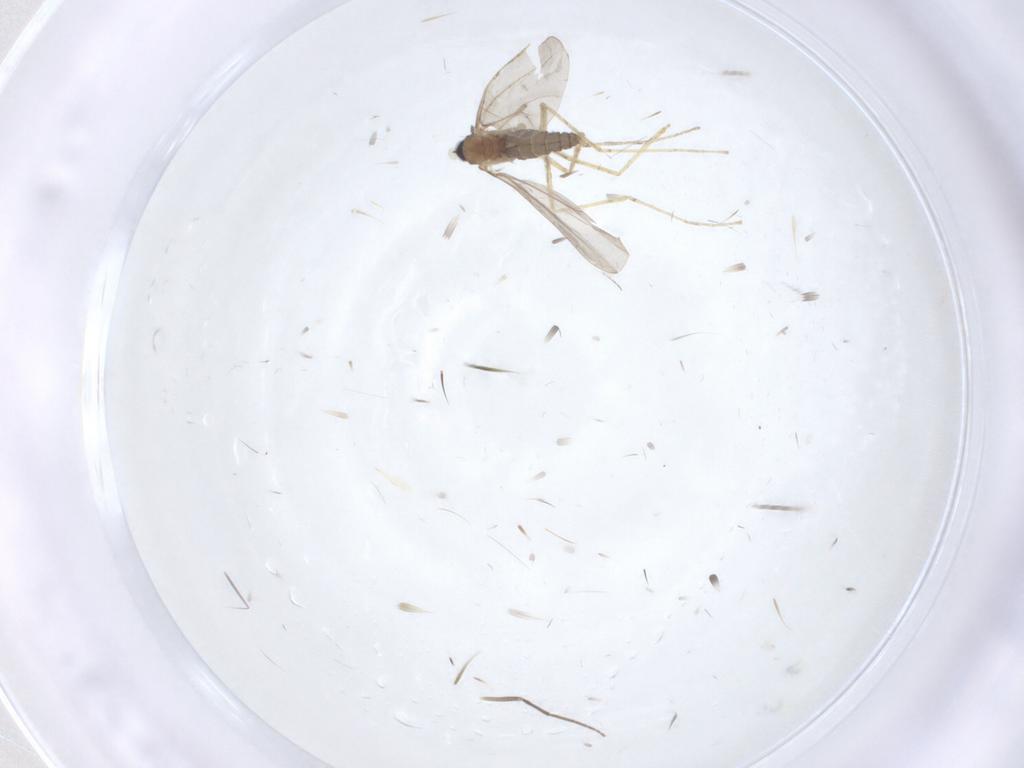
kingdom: Animalia
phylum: Arthropoda
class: Insecta
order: Diptera
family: Cecidomyiidae
